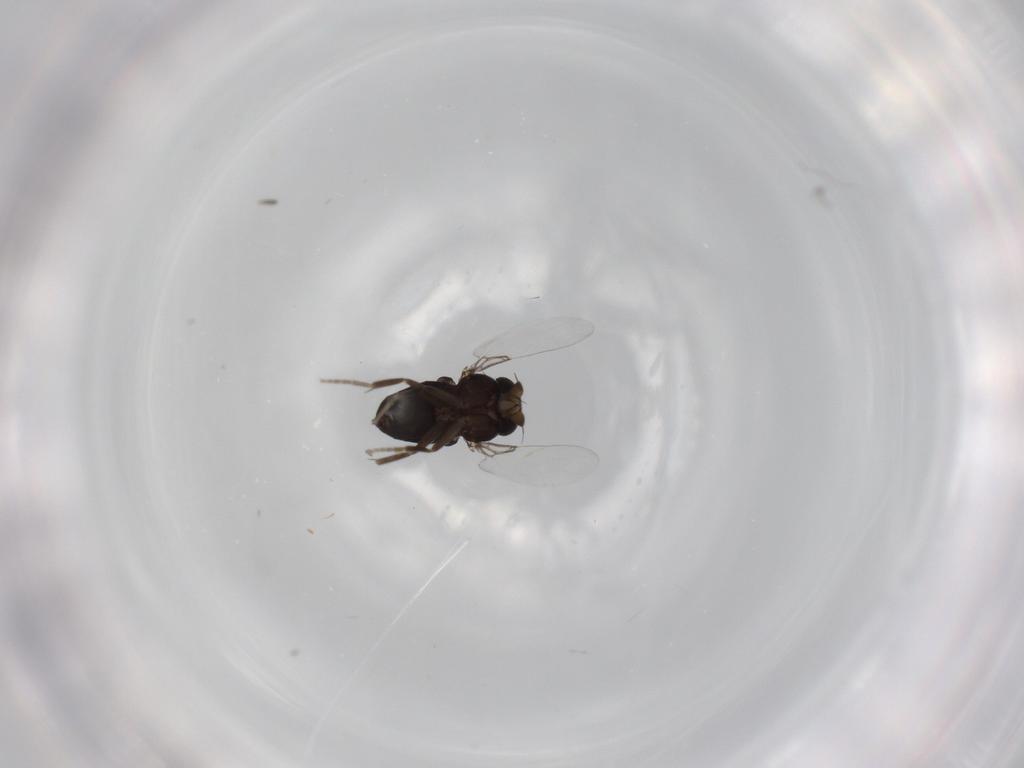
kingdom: Animalia
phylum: Arthropoda
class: Insecta
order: Diptera
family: Phoridae
